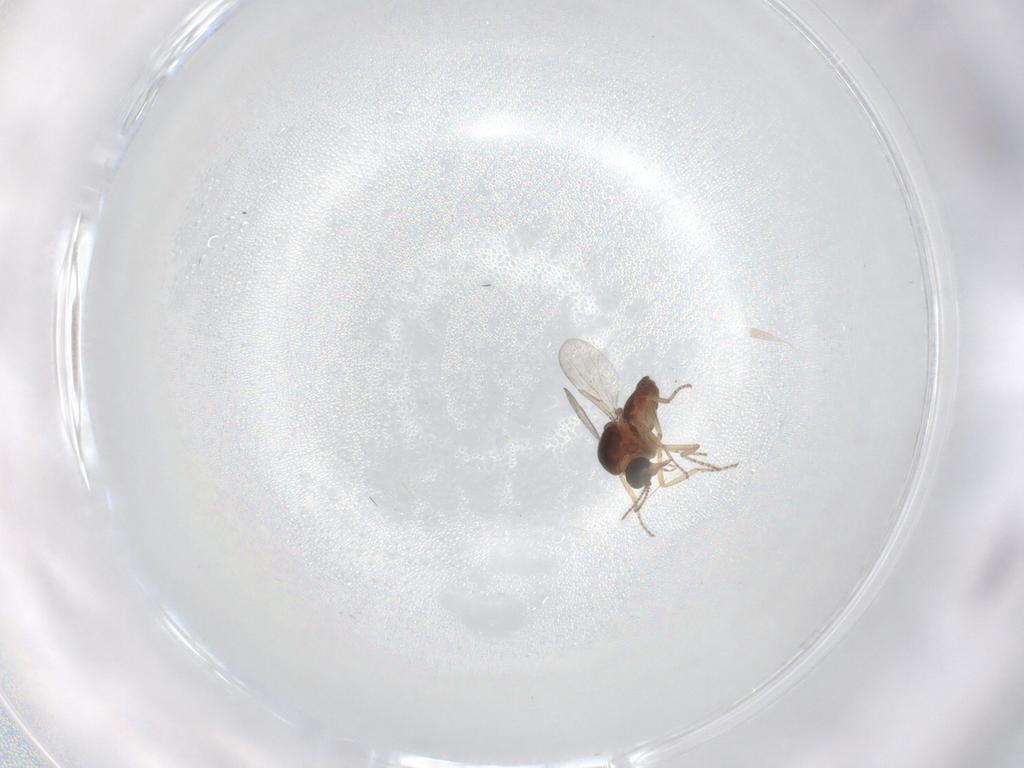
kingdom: Animalia
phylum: Arthropoda
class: Insecta
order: Diptera
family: Ceratopogonidae
